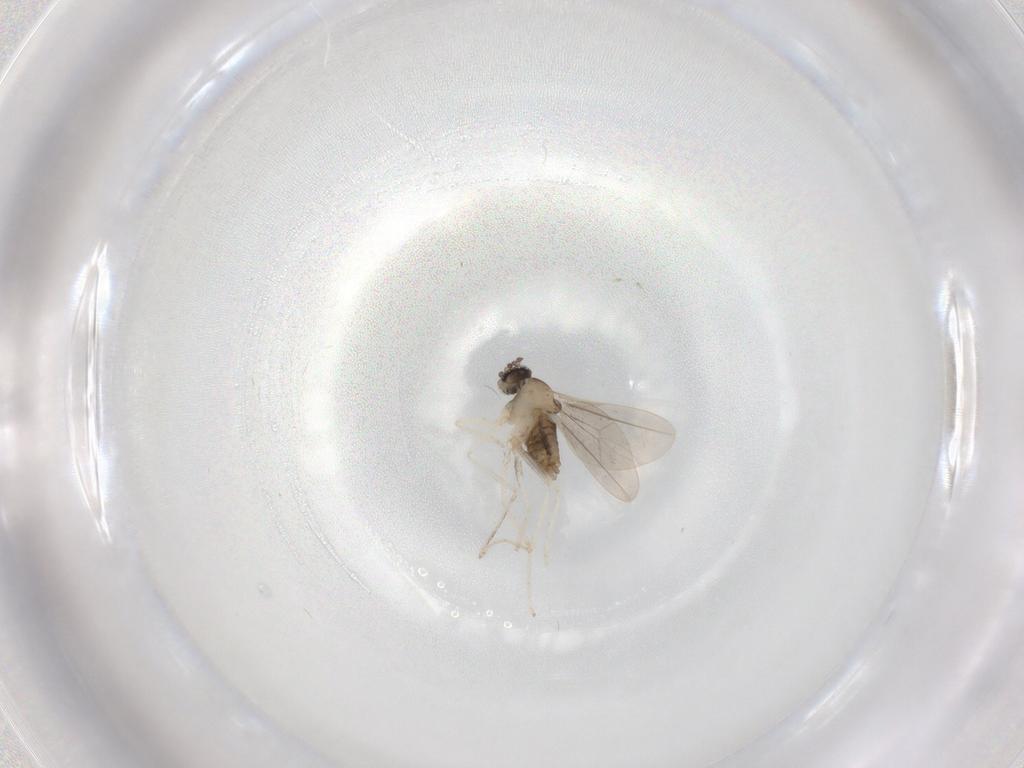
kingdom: Animalia
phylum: Arthropoda
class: Insecta
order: Diptera
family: Cecidomyiidae
